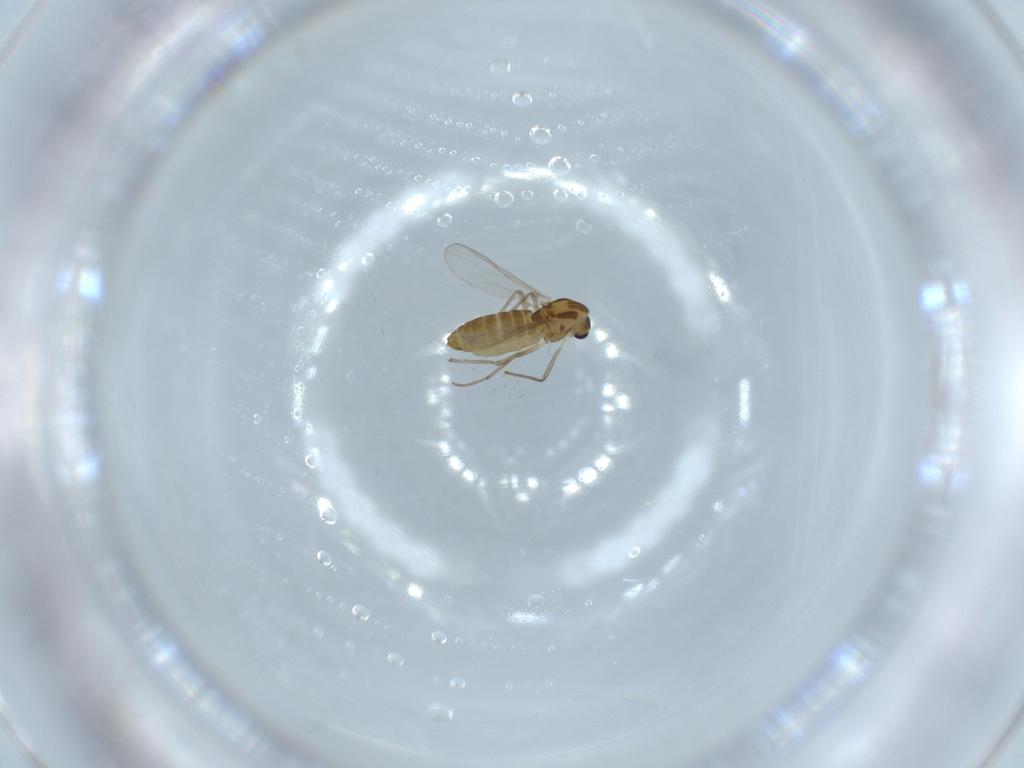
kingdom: Animalia
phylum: Arthropoda
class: Insecta
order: Diptera
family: Chironomidae
